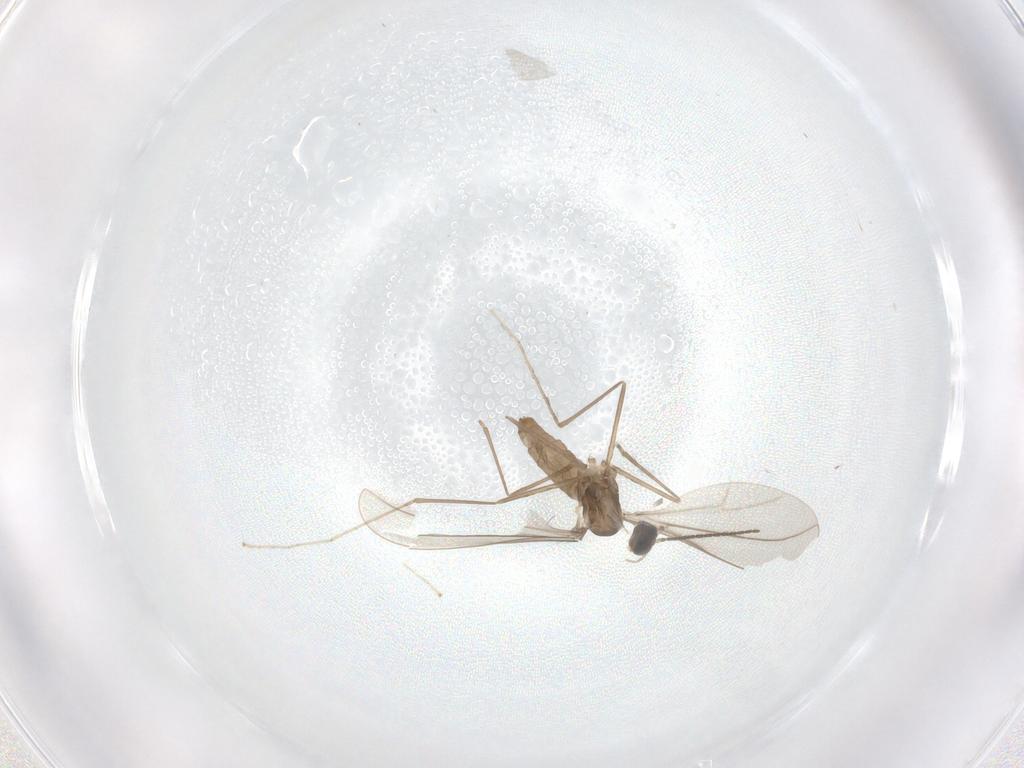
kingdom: Animalia
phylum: Arthropoda
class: Insecta
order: Diptera
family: Cecidomyiidae
